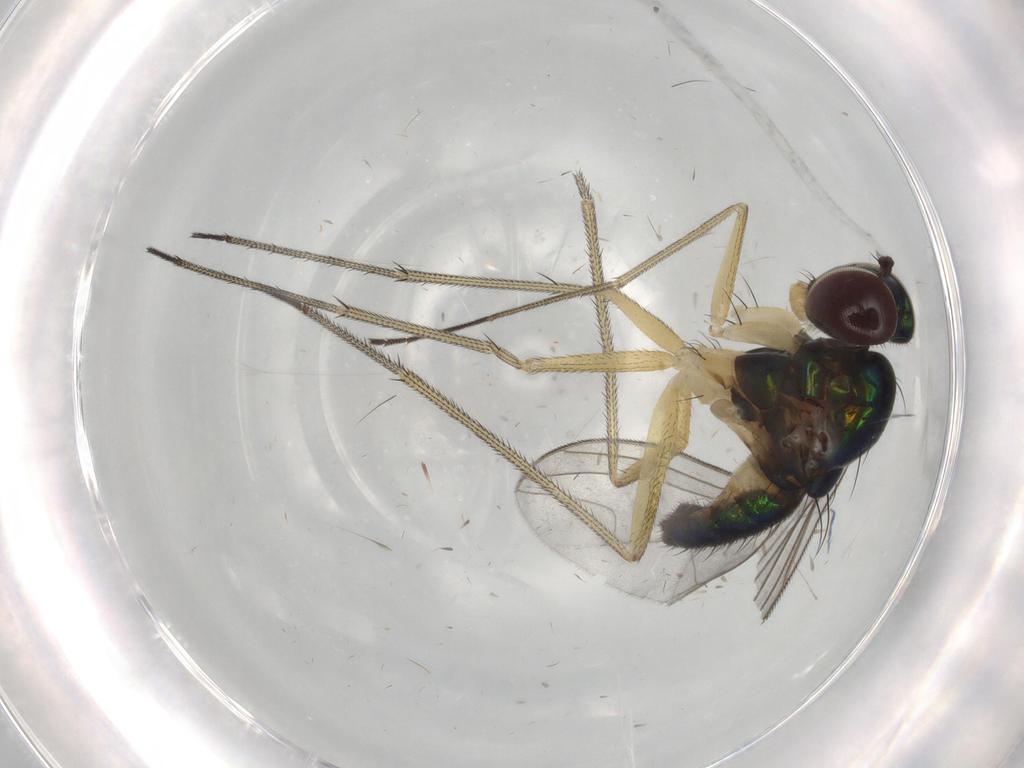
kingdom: Animalia
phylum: Arthropoda
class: Insecta
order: Diptera
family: Dolichopodidae
